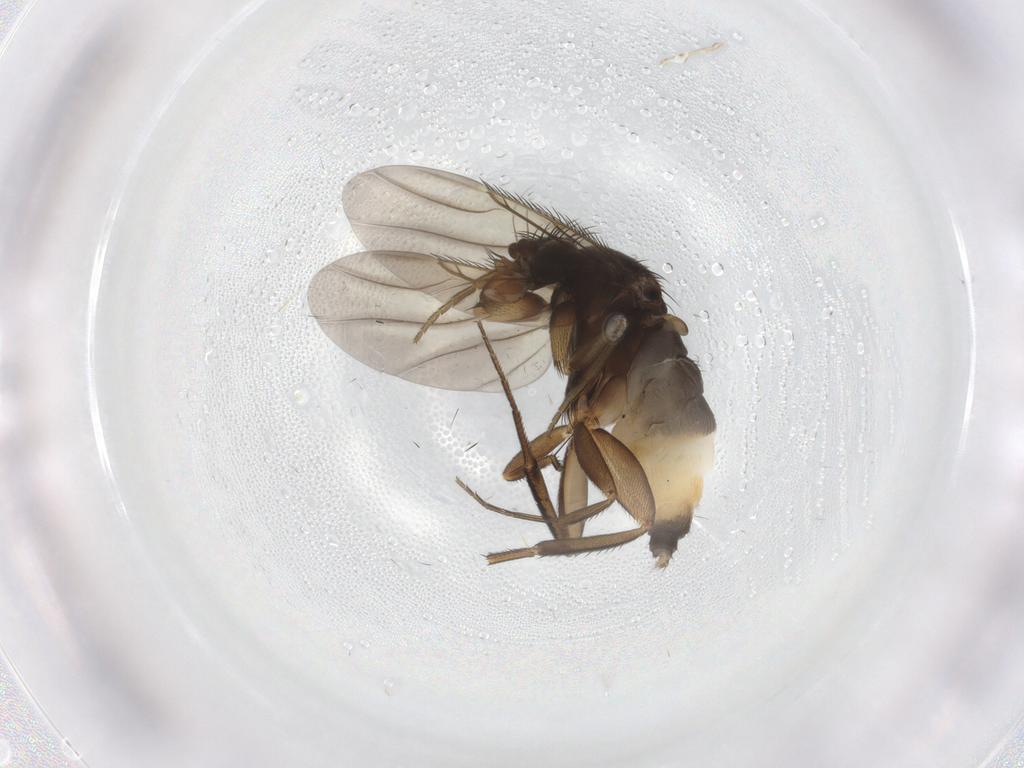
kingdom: Animalia
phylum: Arthropoda
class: Insecta
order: Diptera
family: Phoridae
